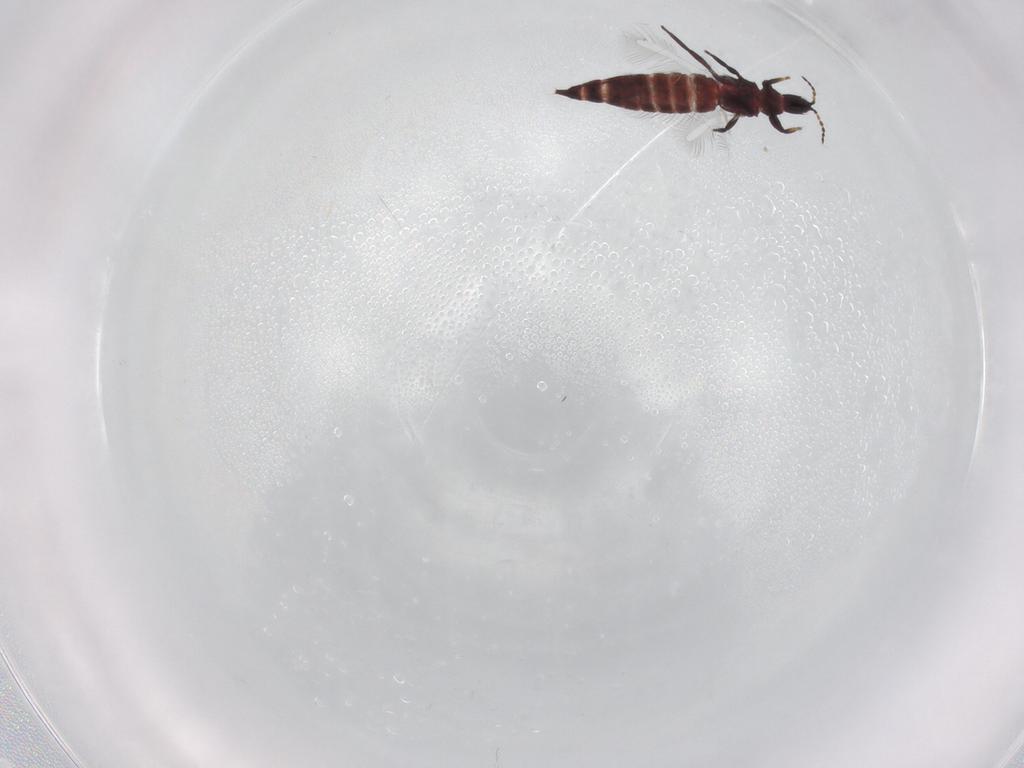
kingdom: Animalia
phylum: Arthropoda
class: Insecta
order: Thysanoptera
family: Phlaeothripidae
